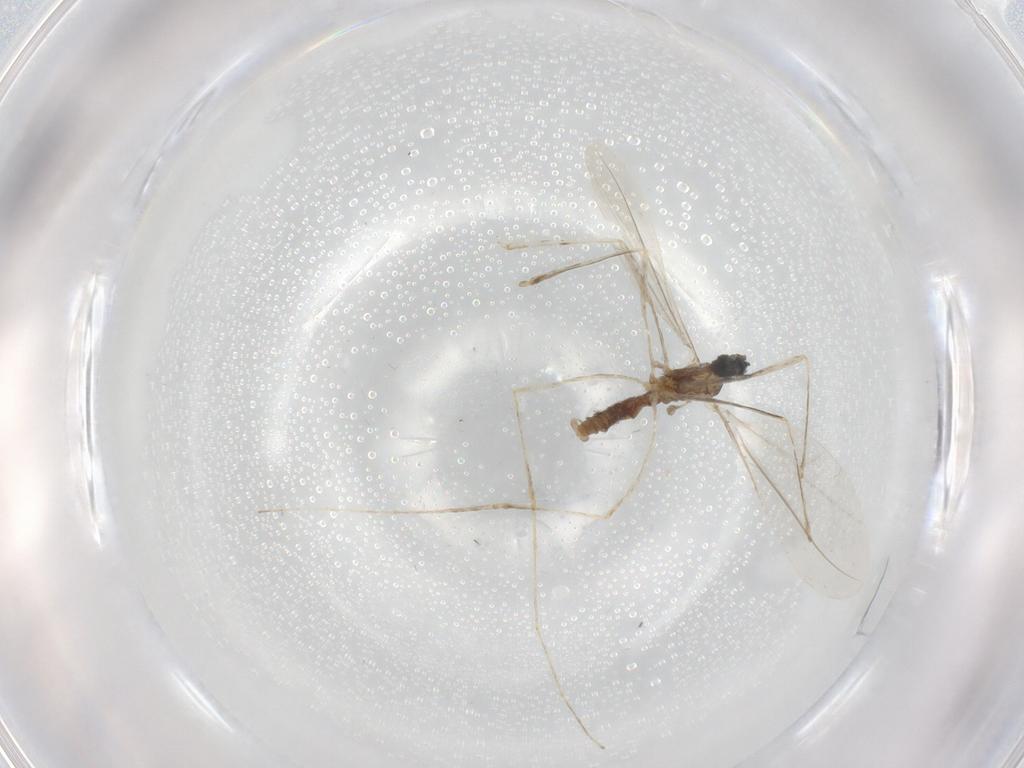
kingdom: Animalia
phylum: Arthropoda
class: Insecta
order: Diptera
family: Cecidomyiidae
